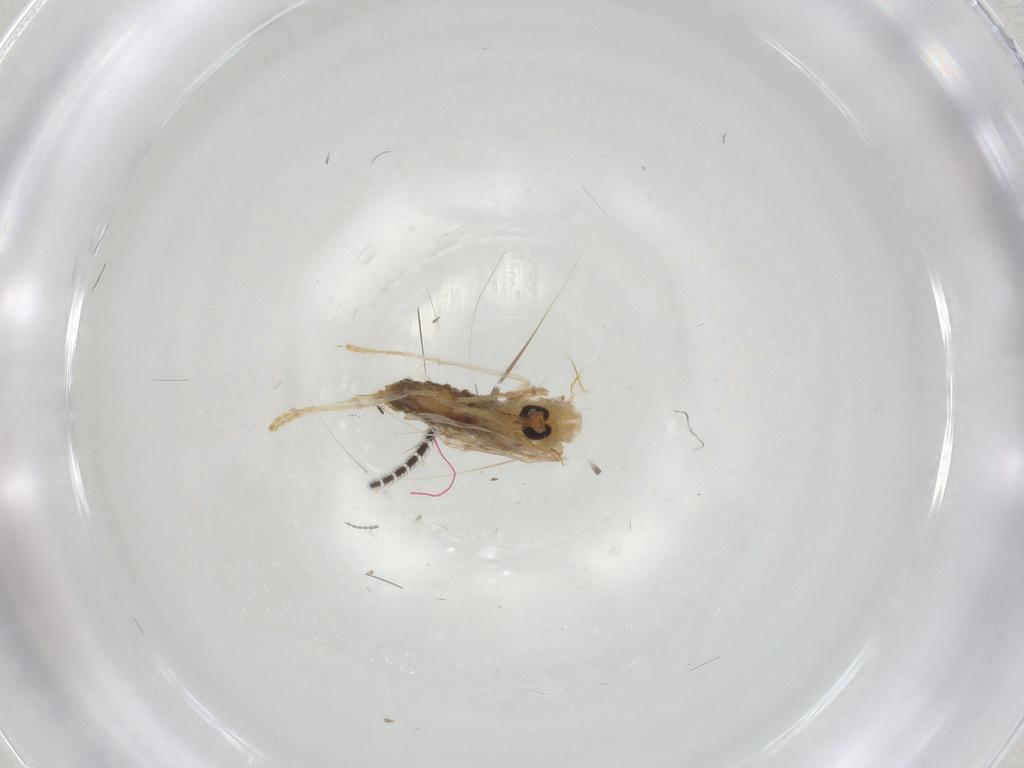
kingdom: Animalia
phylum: Arthropoda
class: Insecta
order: Diptera
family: Psychodidae
